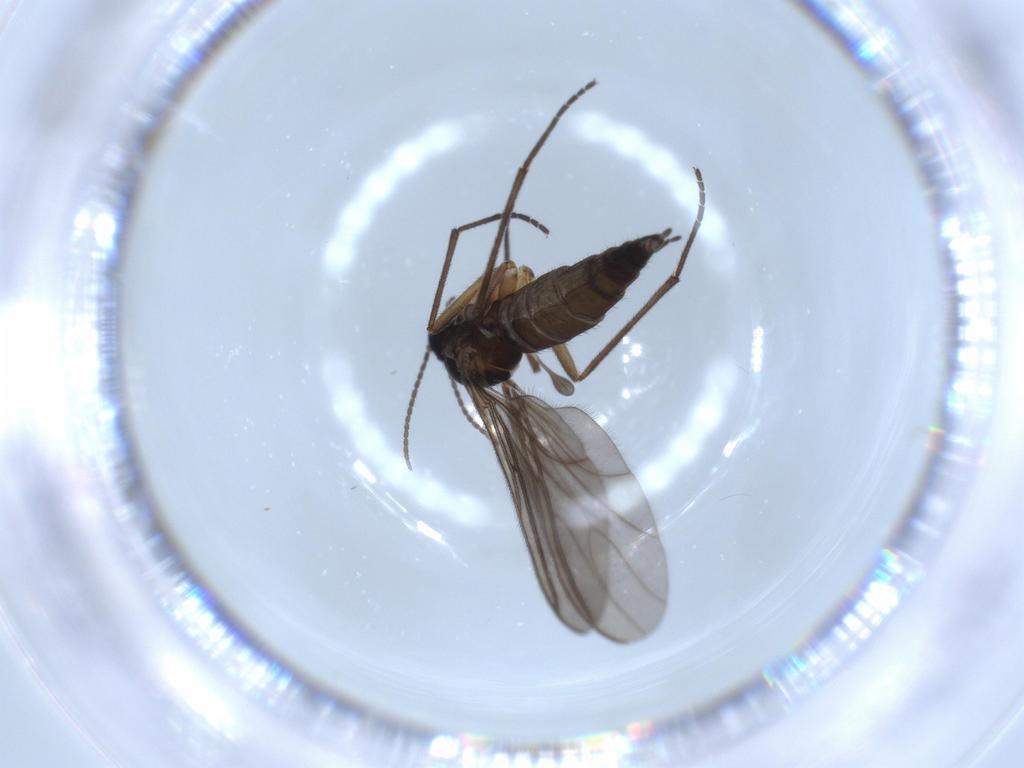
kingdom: Animalia
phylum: Arthropoda
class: Insecta
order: Diptera
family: Sciaridae
